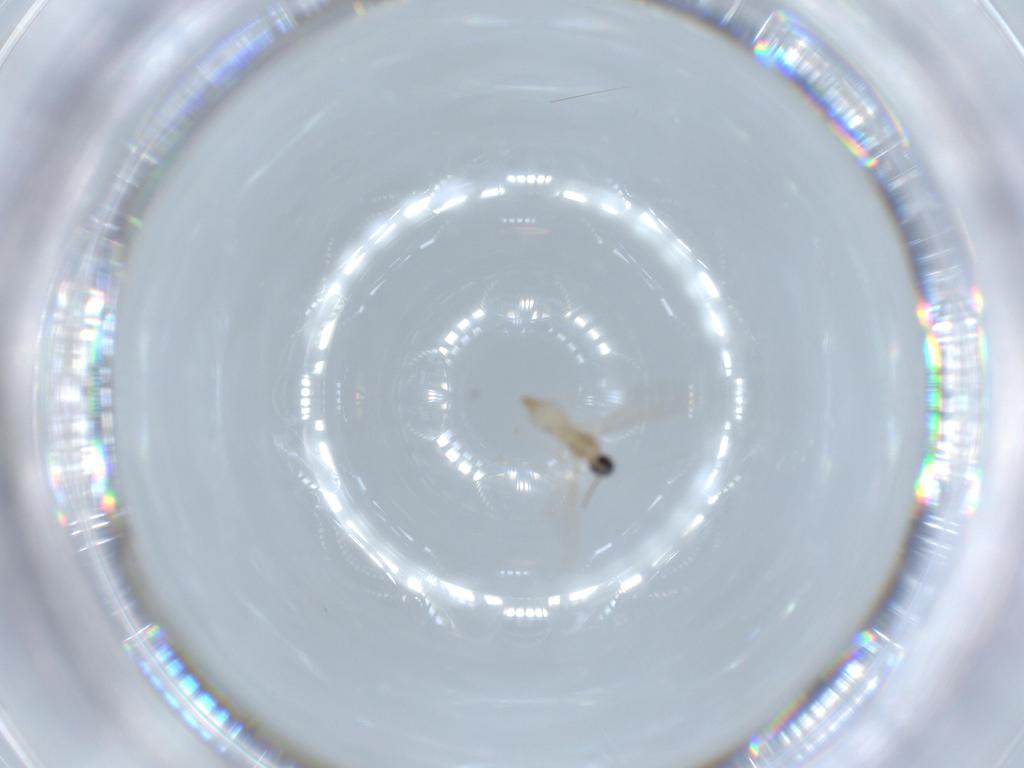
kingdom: Animalia
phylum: Arthropoda
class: Insecta
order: Diptera
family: Cecidomyiidae
